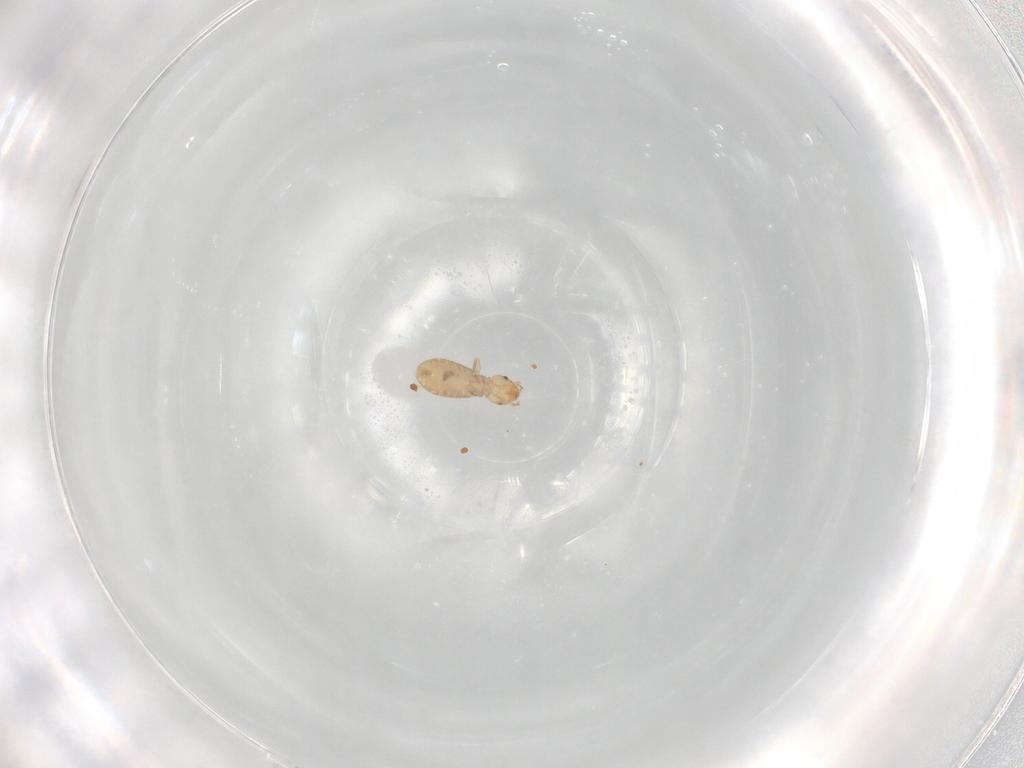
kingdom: Animalia
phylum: Arthropoda
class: Insecta
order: Psocodea
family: Liposcelididae
